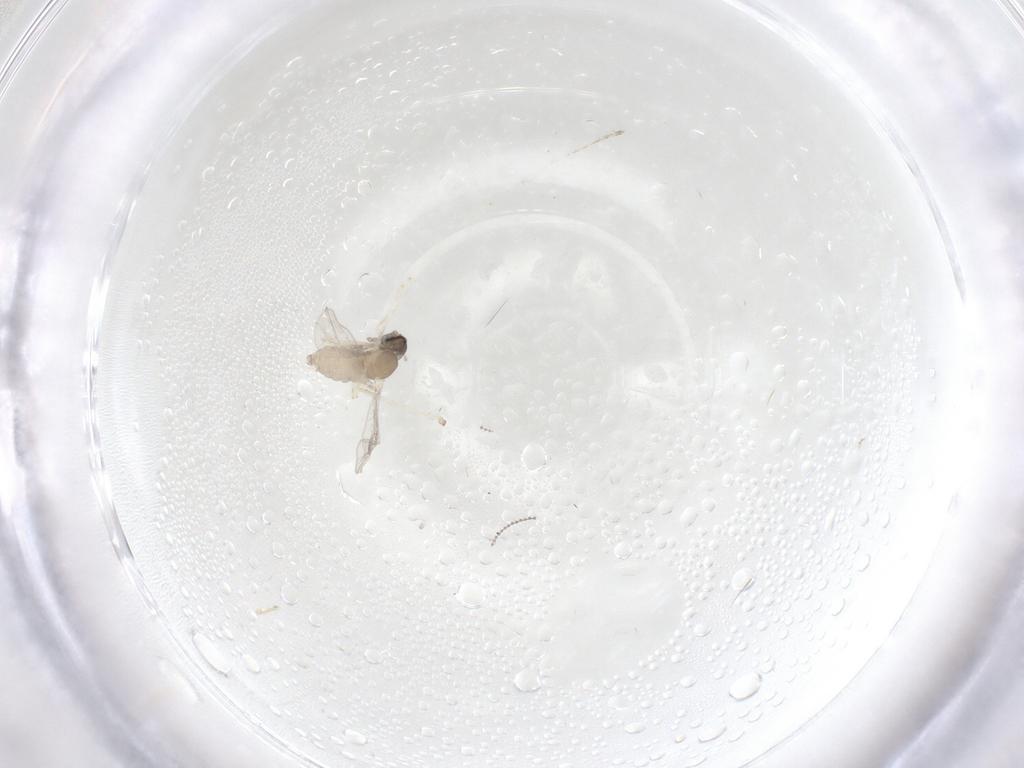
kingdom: Animalia
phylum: Arthropoda
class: Insecta
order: Diptera
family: Cecidomyiidae
